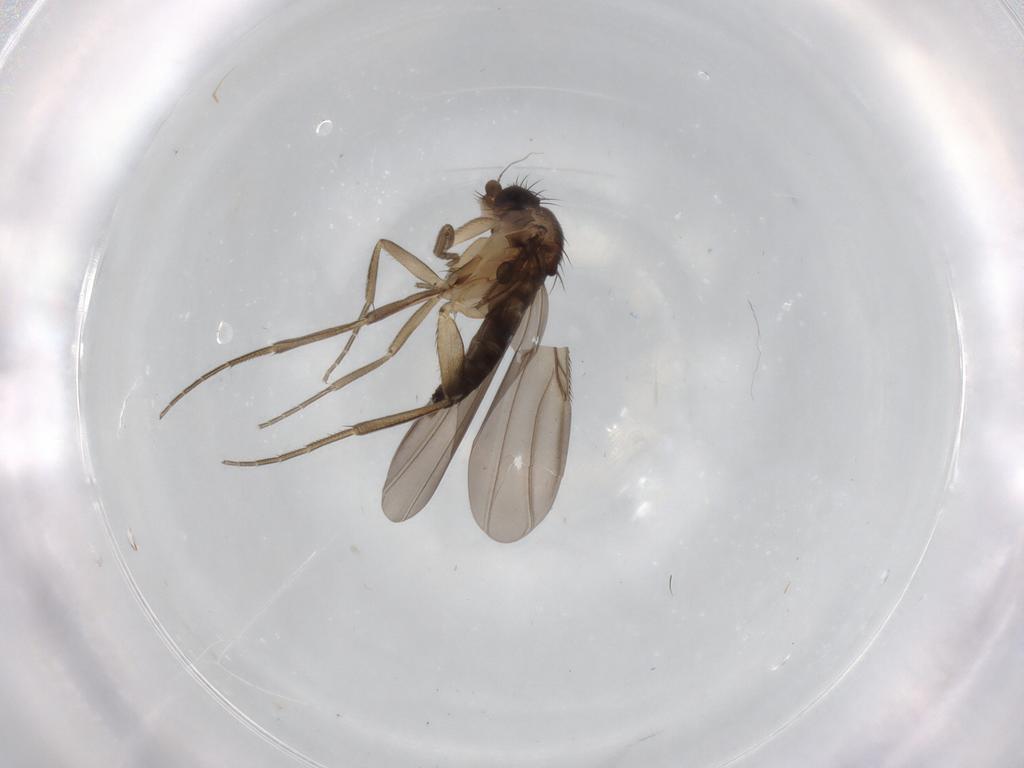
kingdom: Animalia
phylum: Arthropoda
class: Insecta
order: Diptera
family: Phoridae
